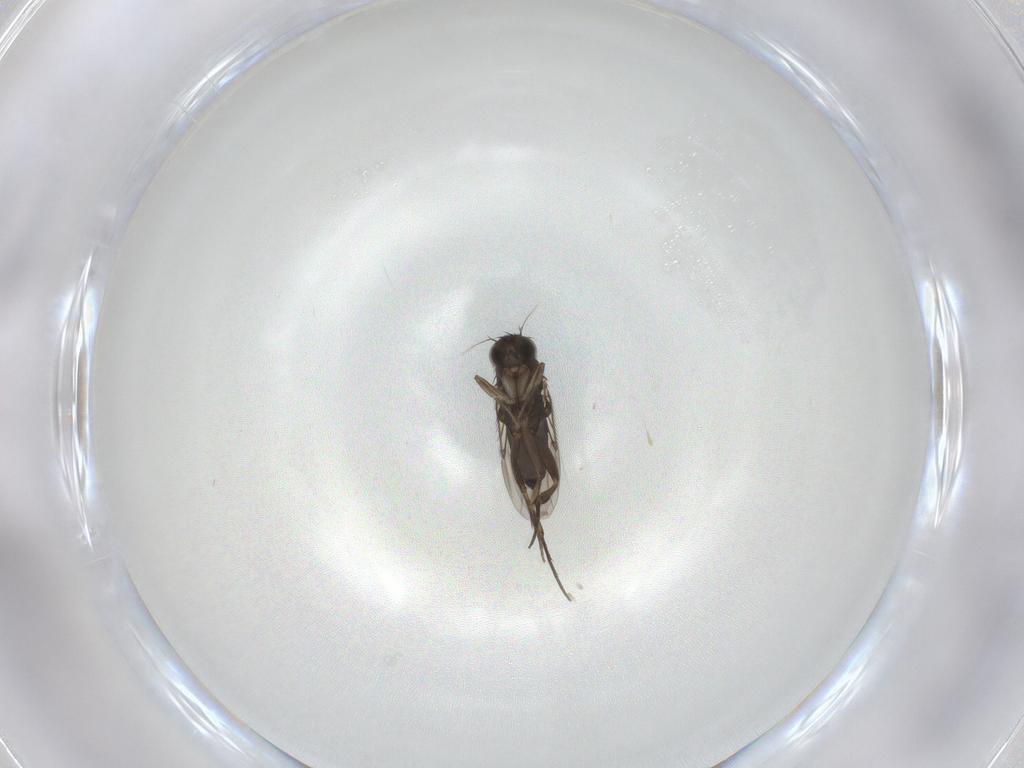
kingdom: Animalia
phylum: Arthropoda
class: Insecta
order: Diptera
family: Phoridae
